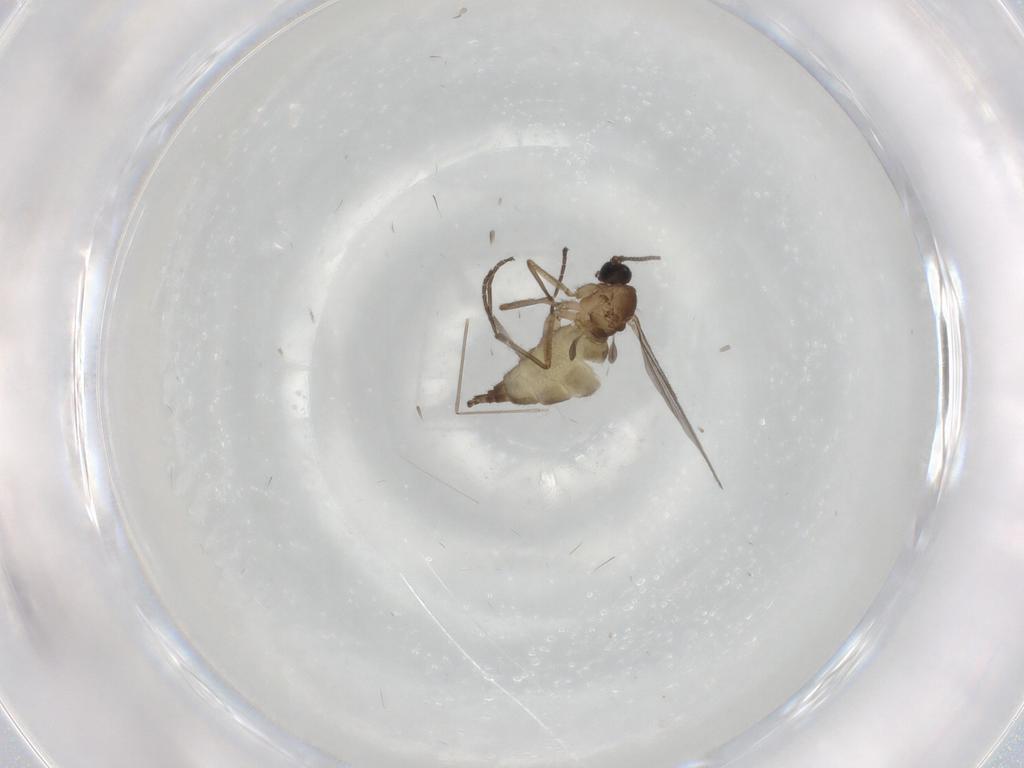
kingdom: Animalia
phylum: Arthropoda
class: Insecta
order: Diptera
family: Sciaridae
